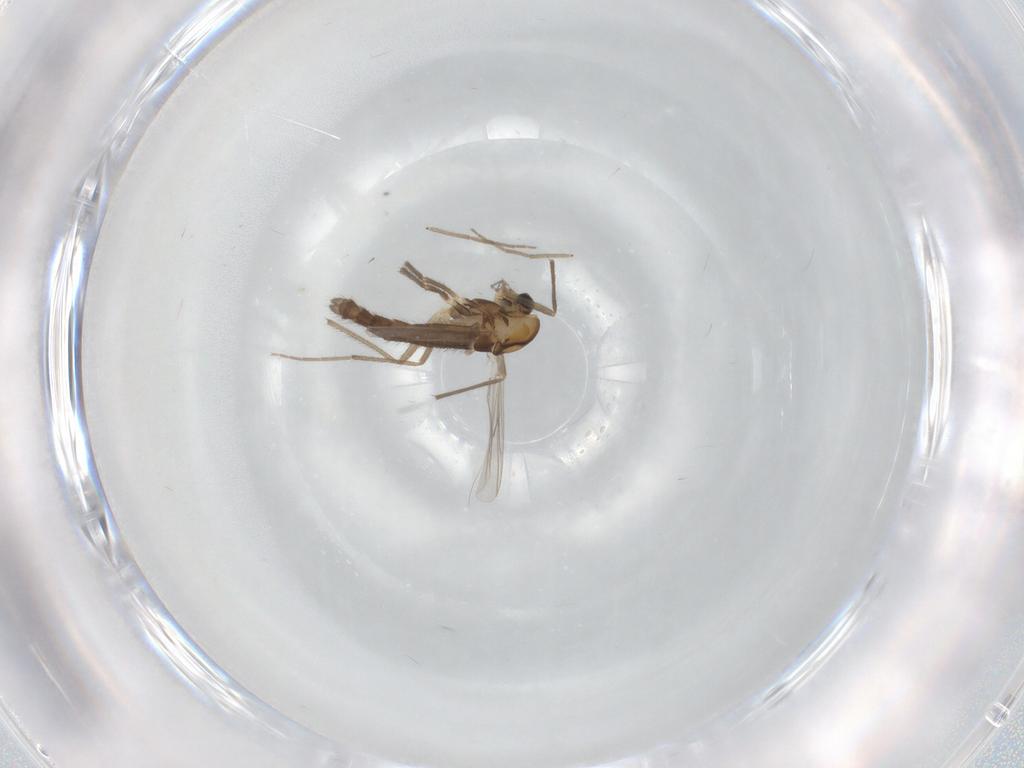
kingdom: Animalia
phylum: Arthropoda
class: Insecta
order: Diptera
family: Chironomidae
